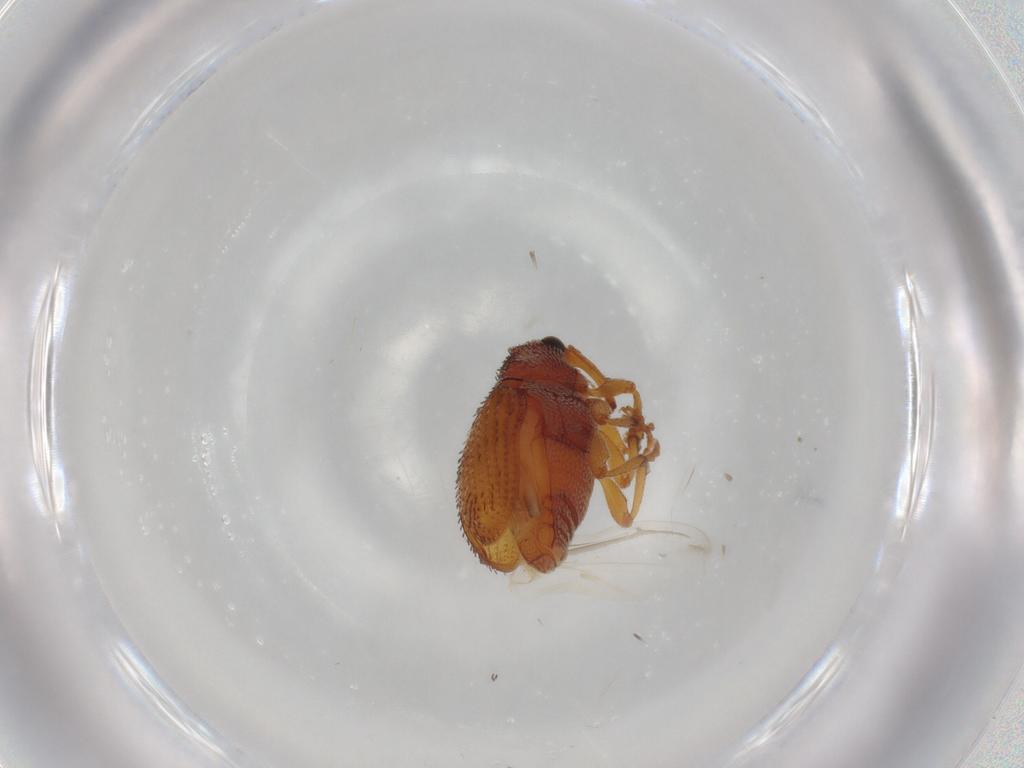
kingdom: Animalia
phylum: Arthropoda
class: Insecta
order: Coleoptera
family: Curculionidae
